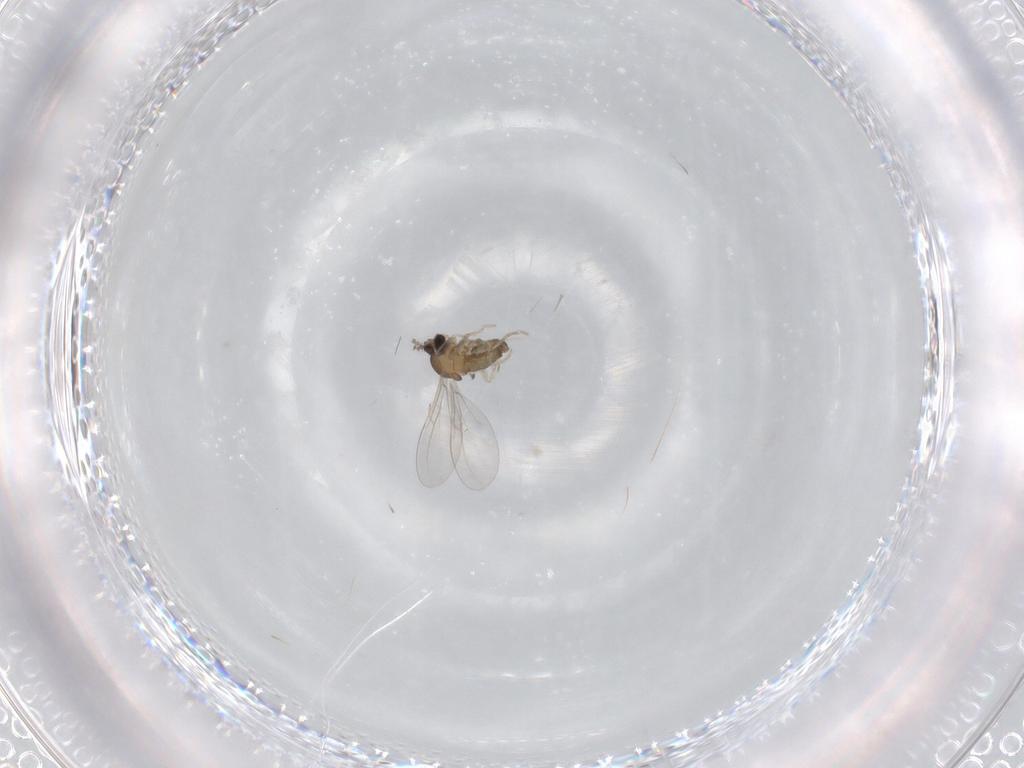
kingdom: Animalia
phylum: Arthropoda
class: Insecta
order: Diptera
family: Cecidomyiidae
